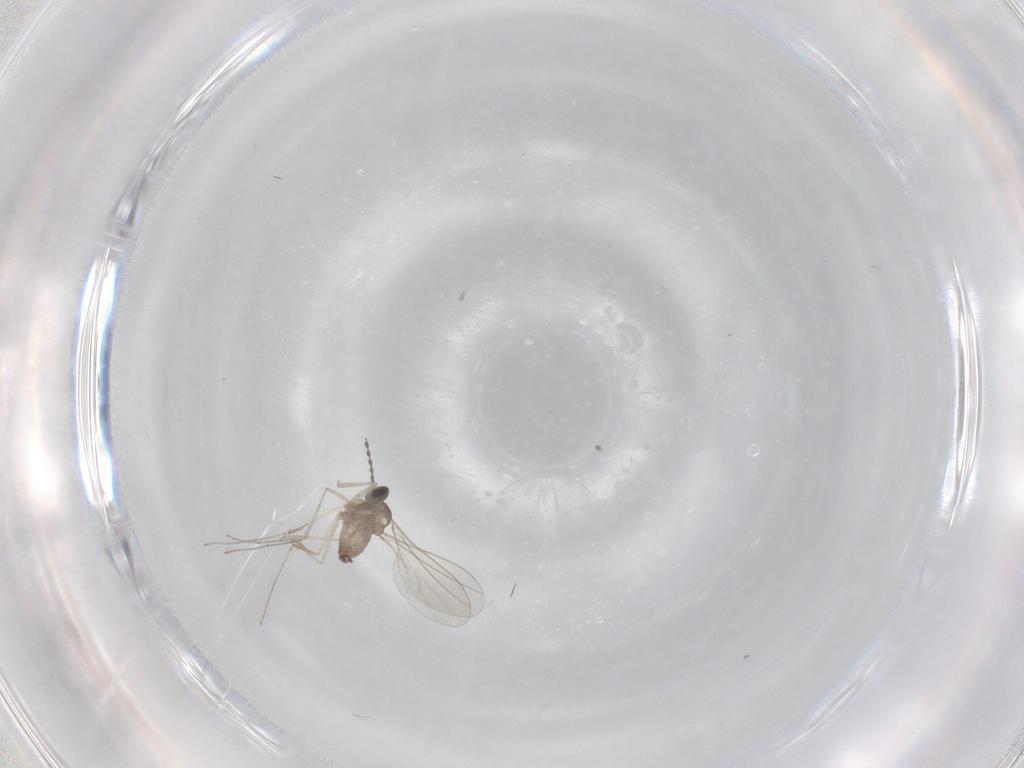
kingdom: Animalia
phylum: Arthropoda
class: Insecta
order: Diptera
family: Cecidomyiidae
